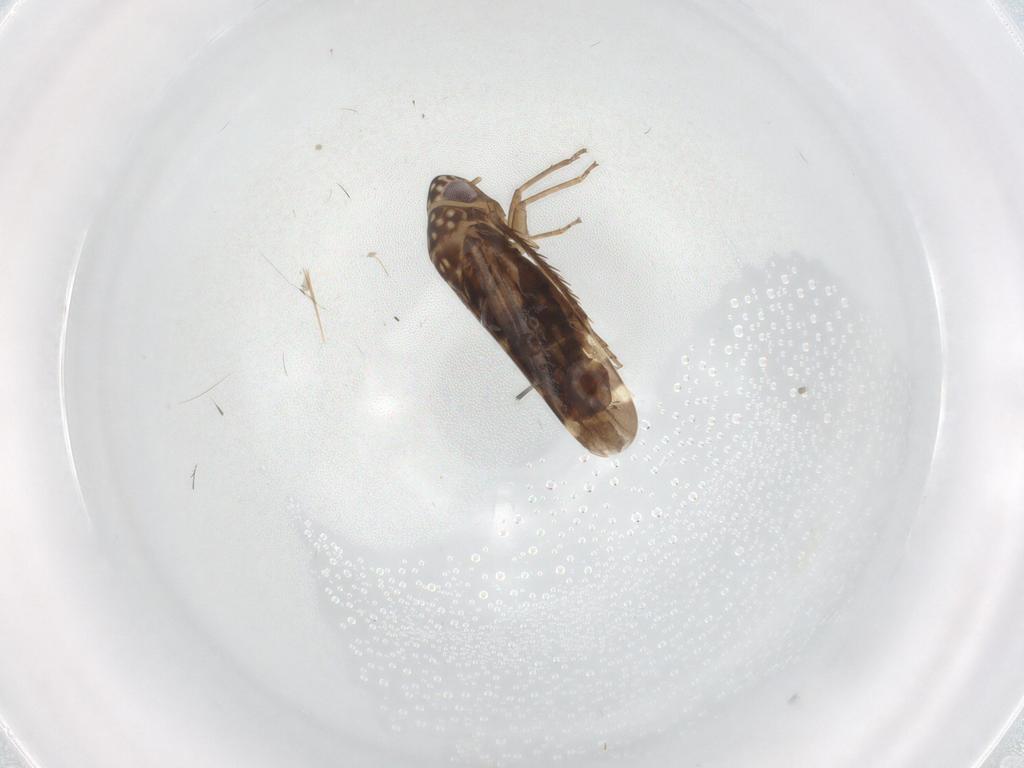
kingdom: Animalia
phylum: Arthropoda
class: Insecta
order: Hemiptera
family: Cicadellidae
